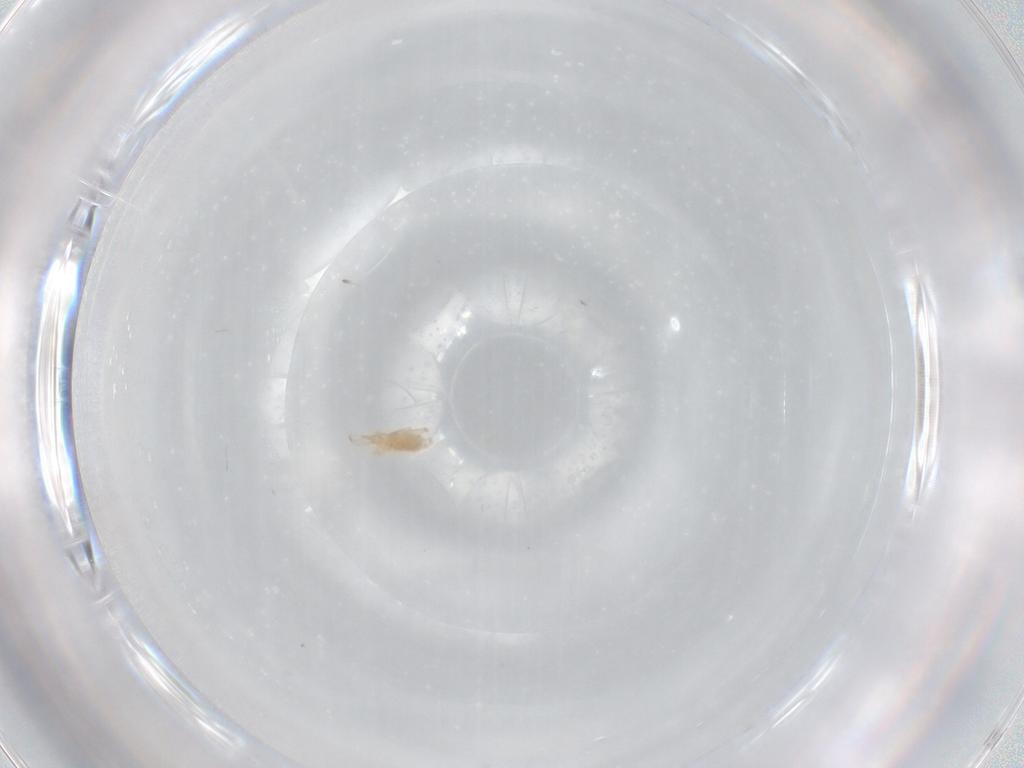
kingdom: Animalia
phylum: Arthropoda
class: Arachnida
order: Trombidiformes
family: Cunaxidae
